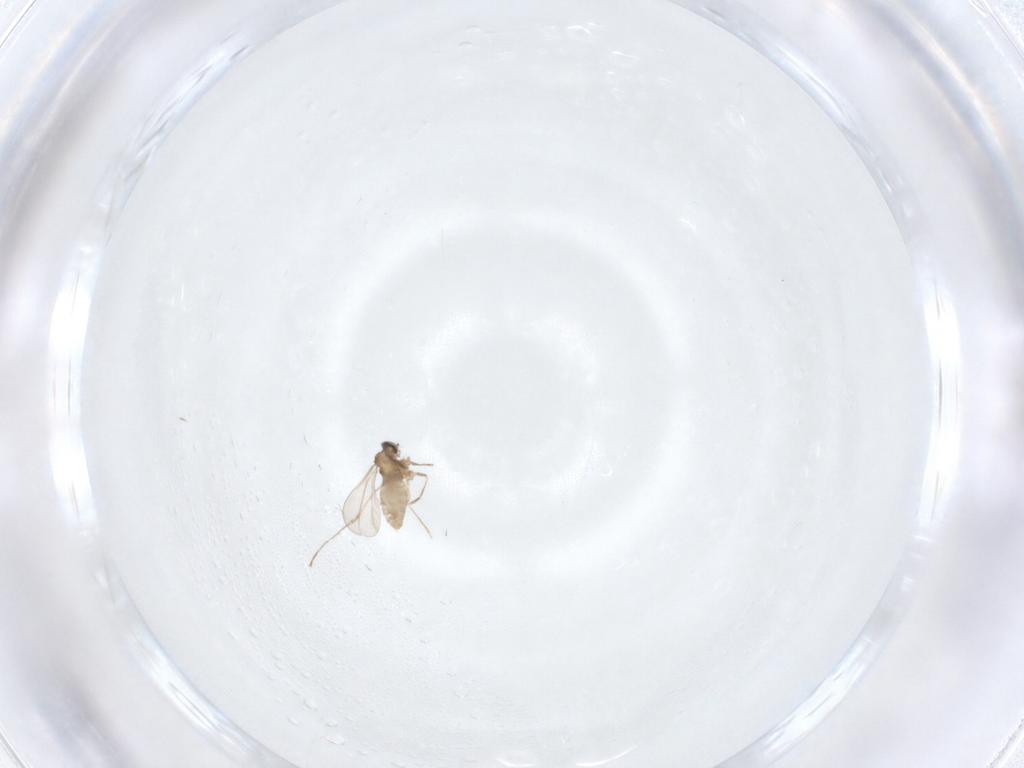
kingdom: Animalia
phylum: Arthropoda
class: Insecta
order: Diptera
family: Cecidomyiidae
